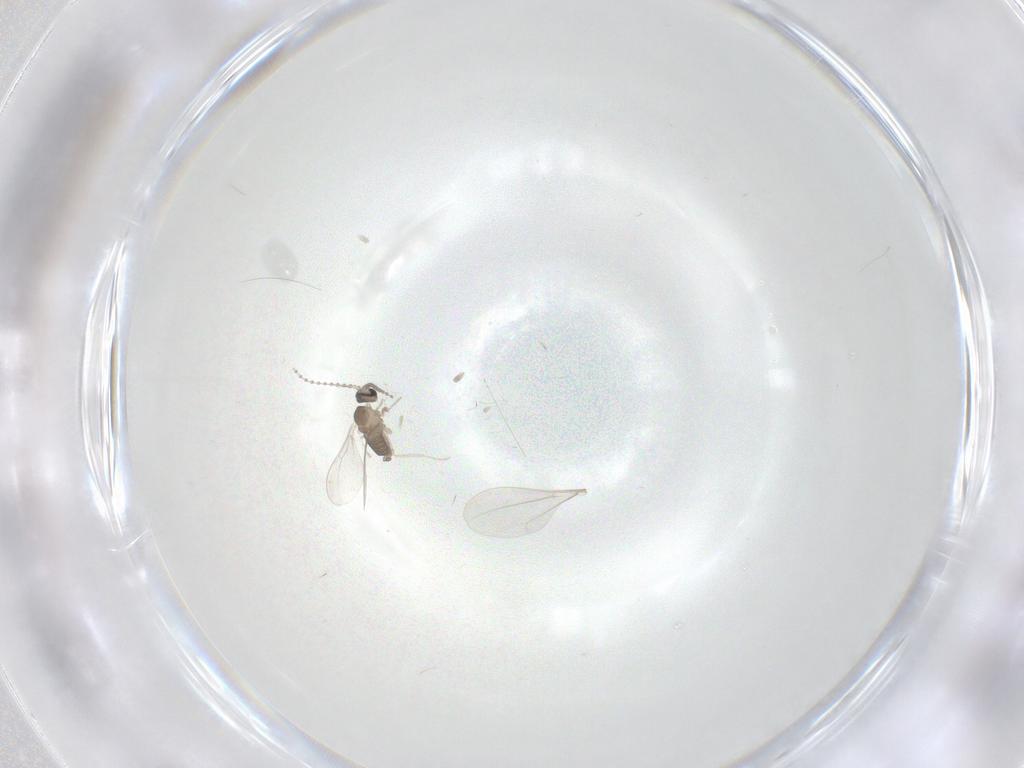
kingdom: Animalia
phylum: Arthropoda
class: Insecta
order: Diptera
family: Cecidomyiidae
